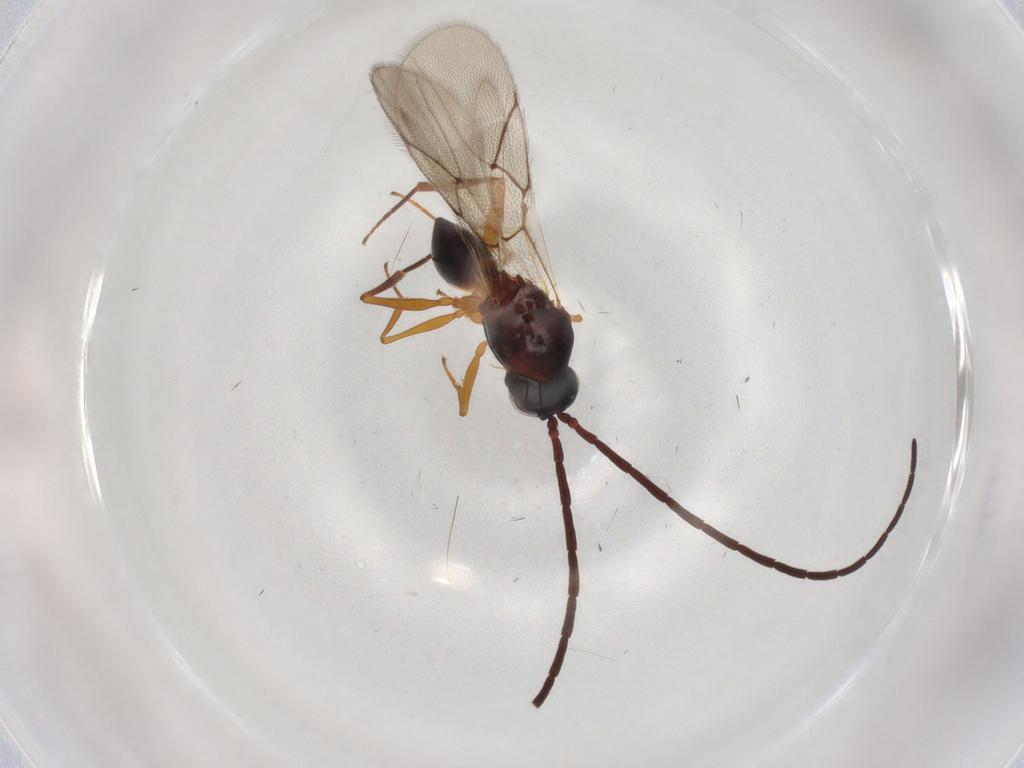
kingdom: Animalia
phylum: Arthropoda
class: Insecta
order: Hymenoptera
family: Figitidae
